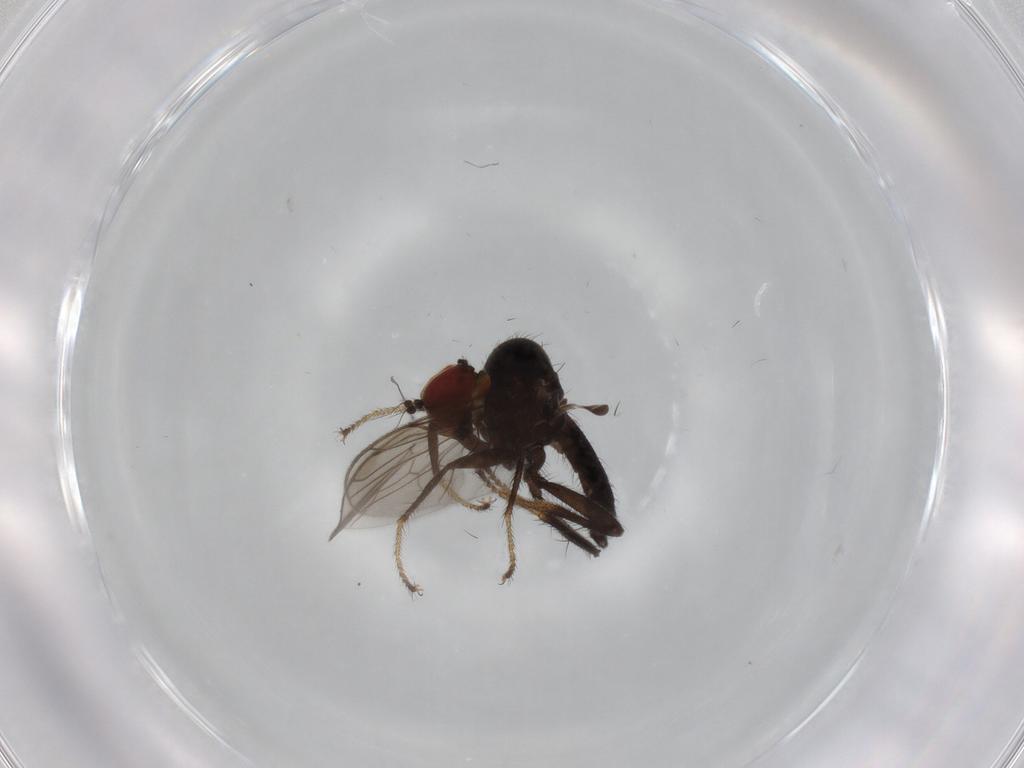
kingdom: Animalia
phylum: Arthropoda
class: Insecta
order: Diptera
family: Hybotidae
